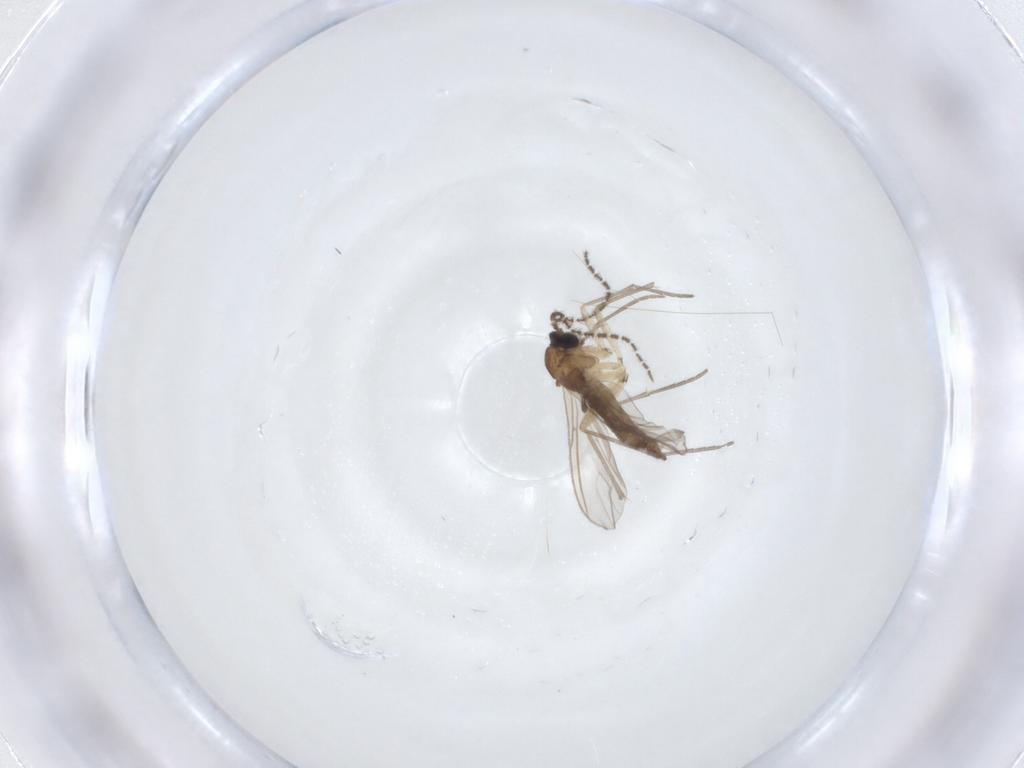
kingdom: Animalia
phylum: Arthropoda
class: Insecta
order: Diptera
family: Sciaridae
